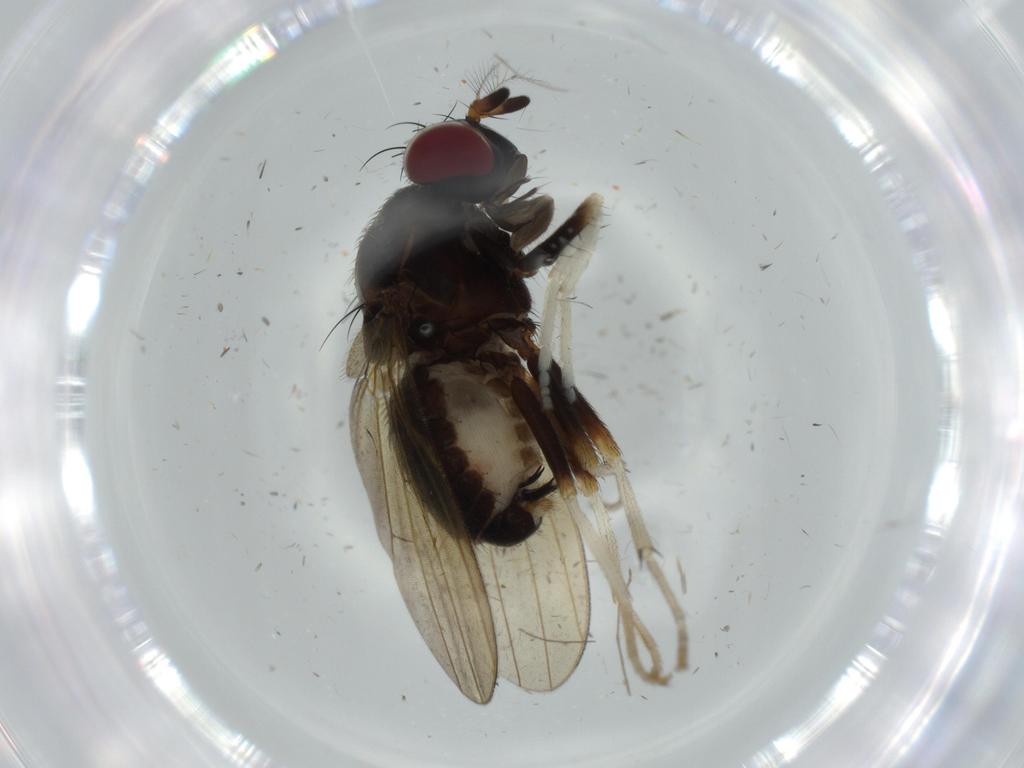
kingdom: Animalia
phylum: Arthropoda
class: Insecta
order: Diptera
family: Lauxaniidae
